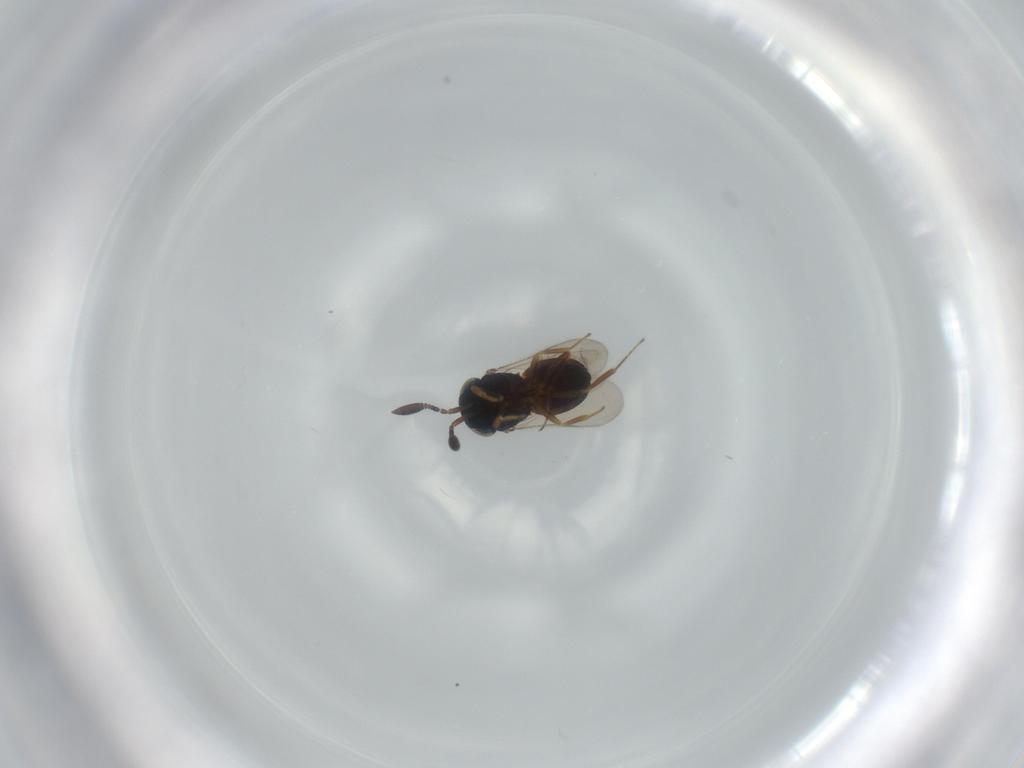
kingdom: Animalia
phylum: Arthropoda
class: Insecta
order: Hymenoptera
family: Scelionidae
